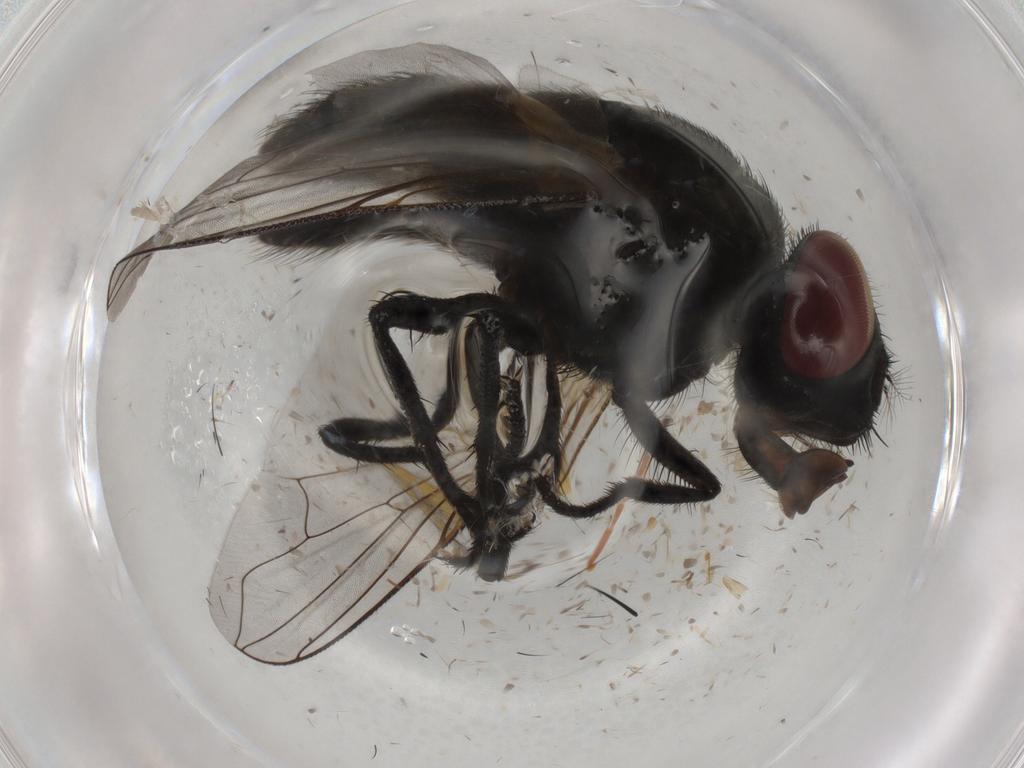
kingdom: Animalia
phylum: Arthropoda
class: Insecta
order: Diptera
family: Muscidae
